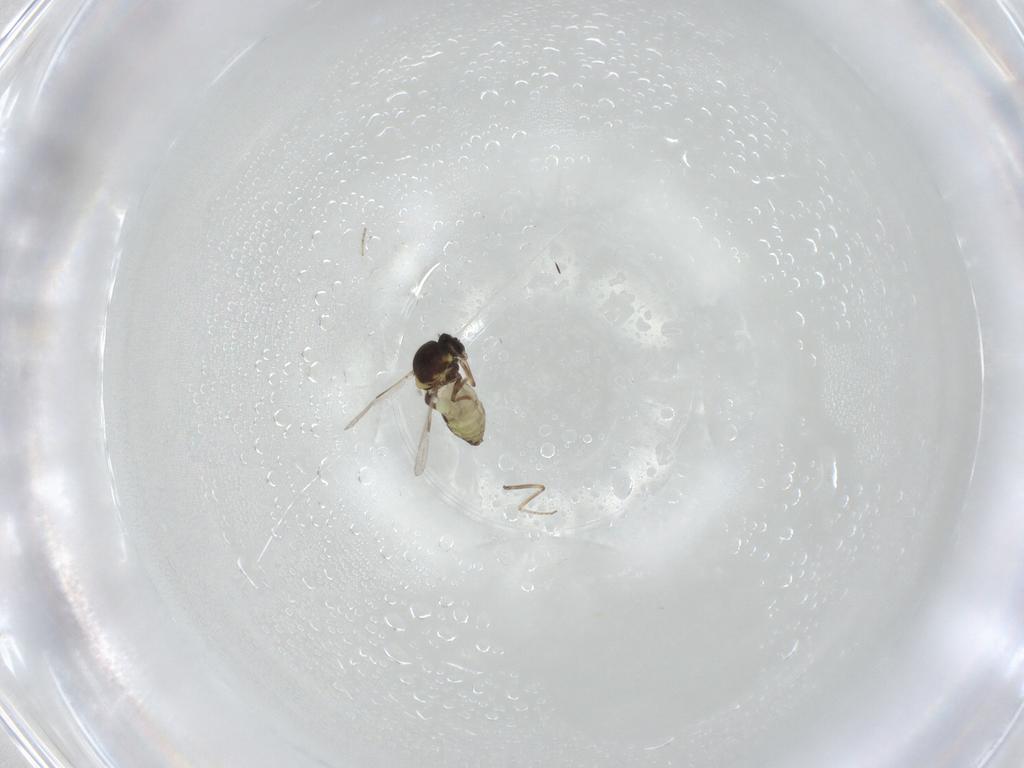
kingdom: Animalia
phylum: Arthropoda
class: Insecta
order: Diptera
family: Ceratopogonidae
